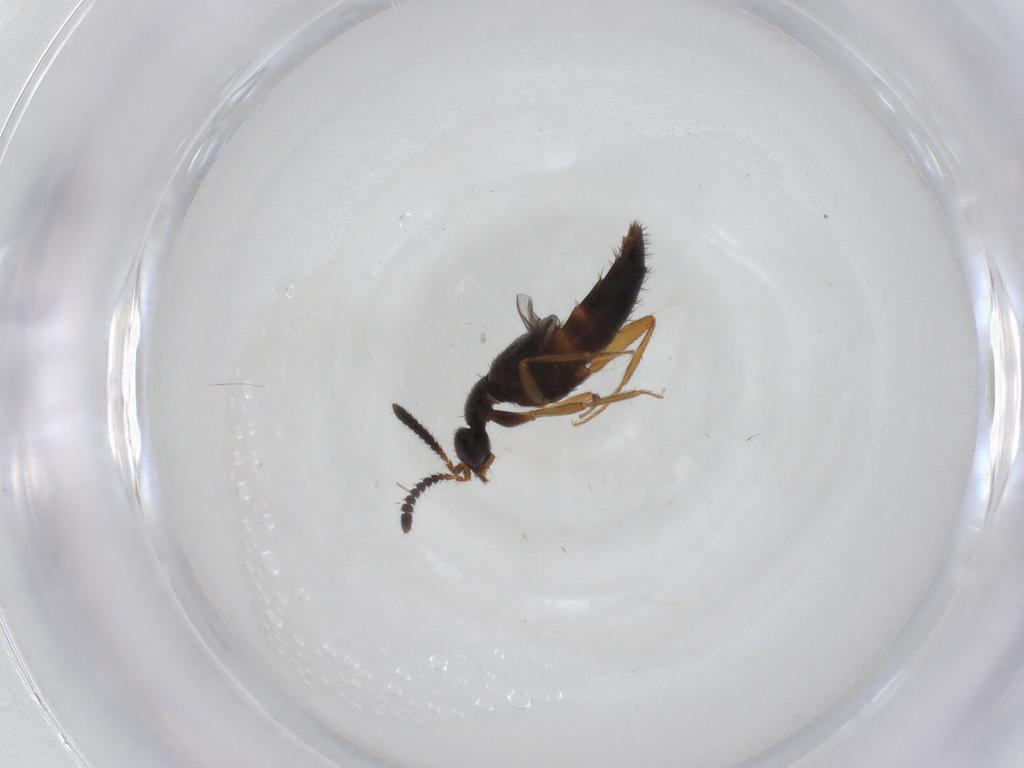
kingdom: Animalia
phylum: Arthropoda
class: Insecta
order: Coleoptera
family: Staphylinidae
